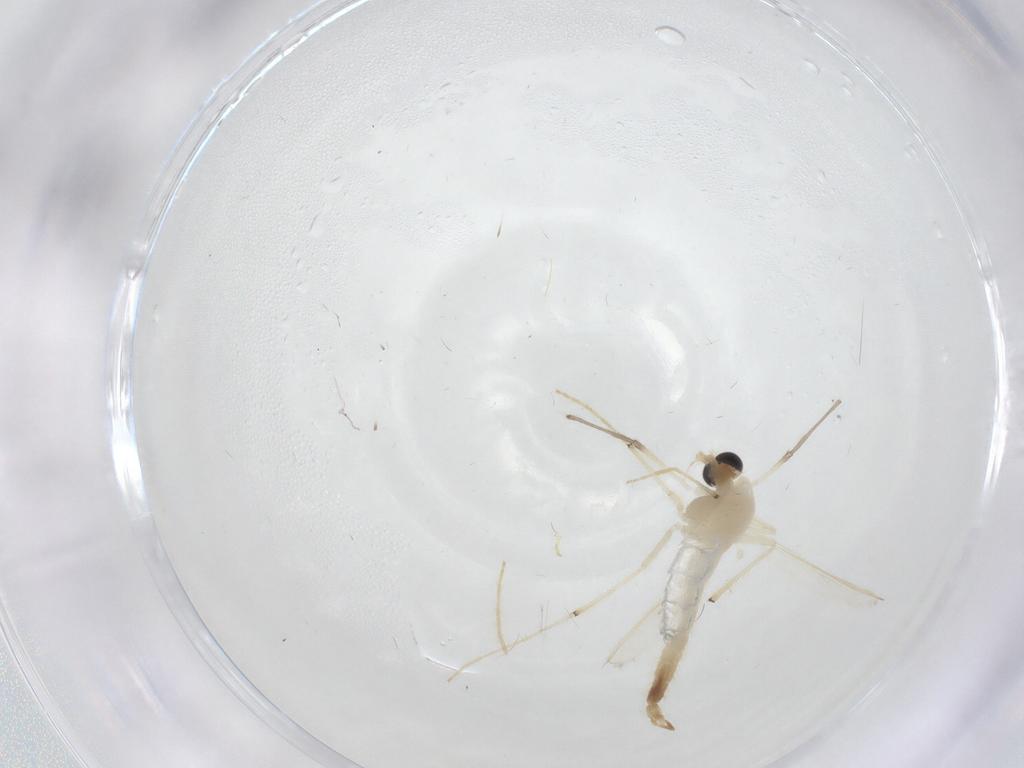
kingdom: Animalia
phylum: Arthropoda
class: Insecta
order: Diptera
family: Chironomidae
